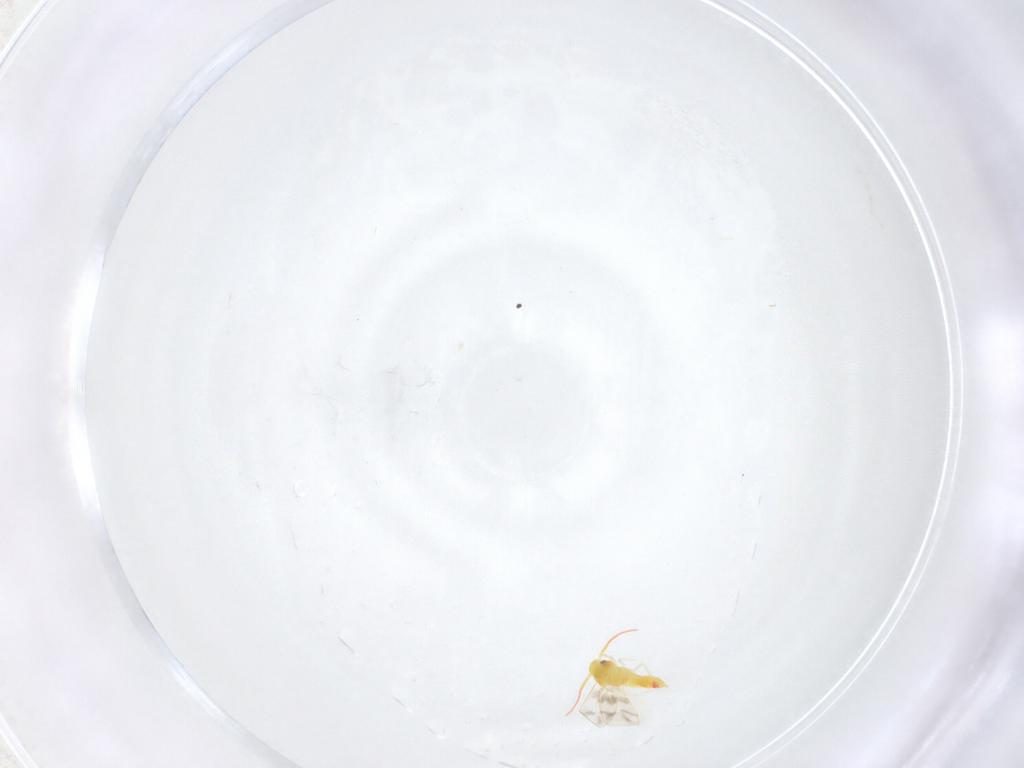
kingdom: Animalia
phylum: Arthropoda
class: Insecta
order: Hemiptera
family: Aleyrodidae
